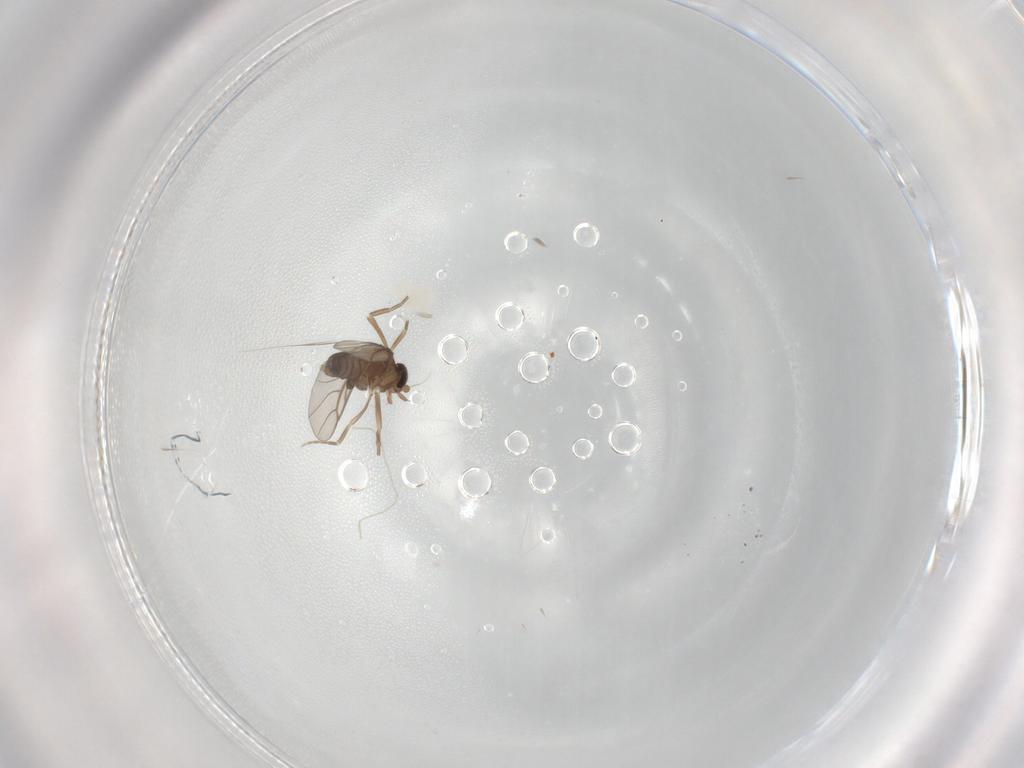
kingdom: Animalia
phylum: Arthropoda
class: Insecta
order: Diptera
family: Phoridae
